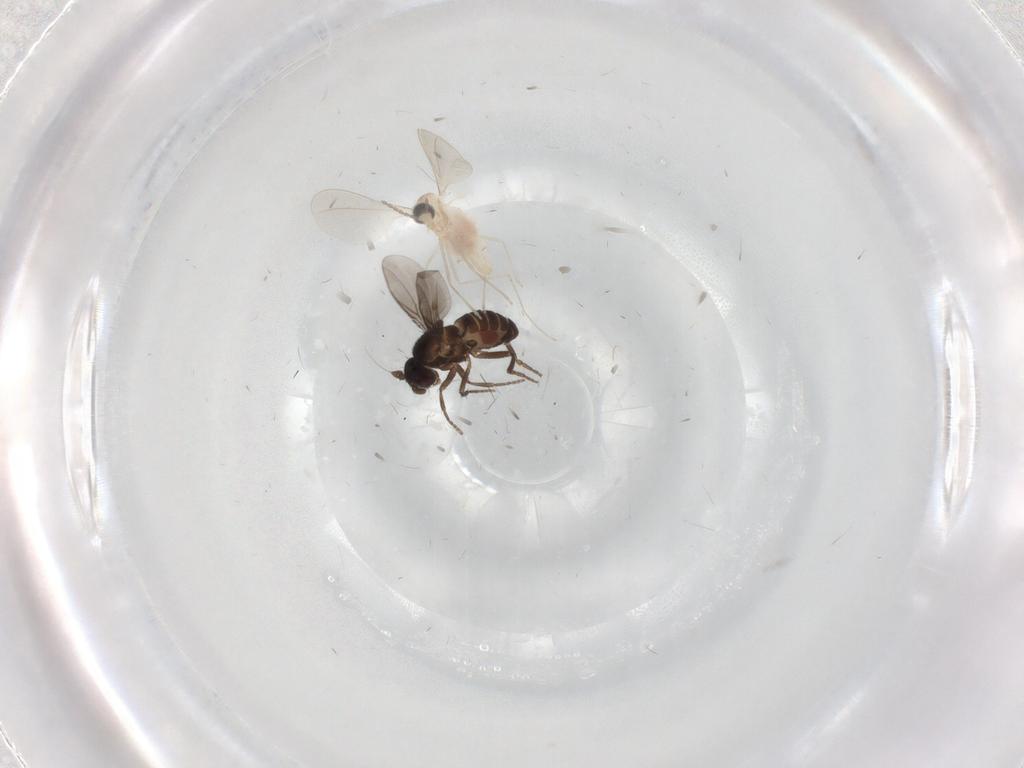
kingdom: Animalia
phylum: Arthropoda
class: Insecta
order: Diptera
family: Sphaeroceridae
